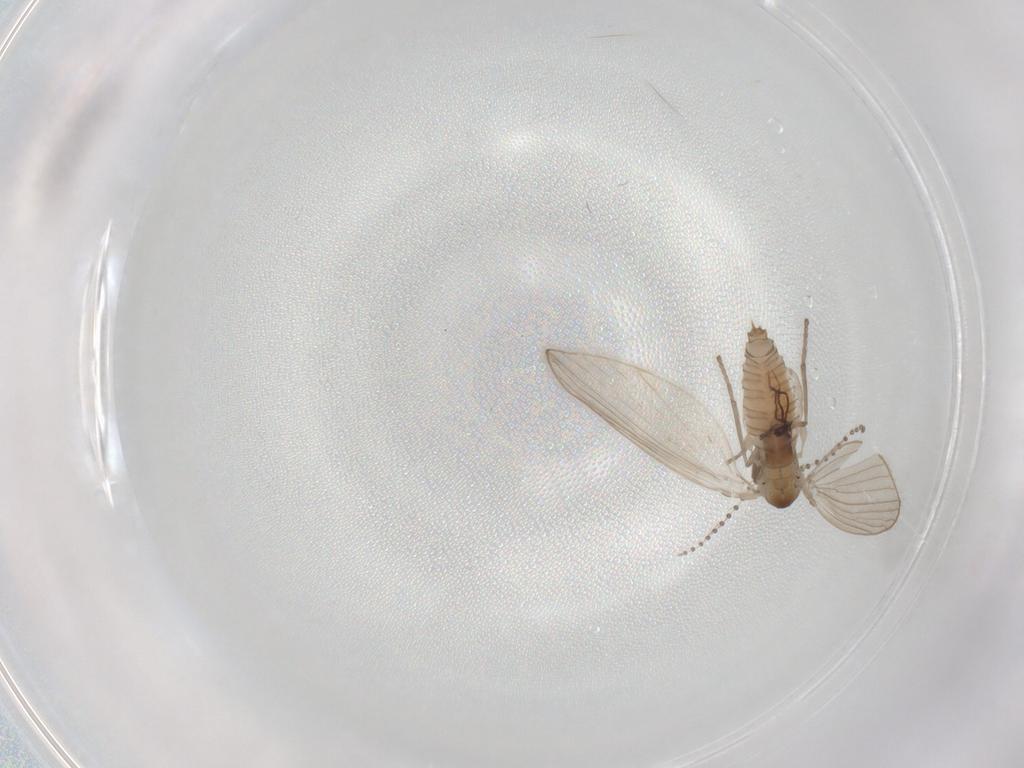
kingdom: Animalia
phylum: Arthropoda
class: Insecta
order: Diptera
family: Psychodidae
